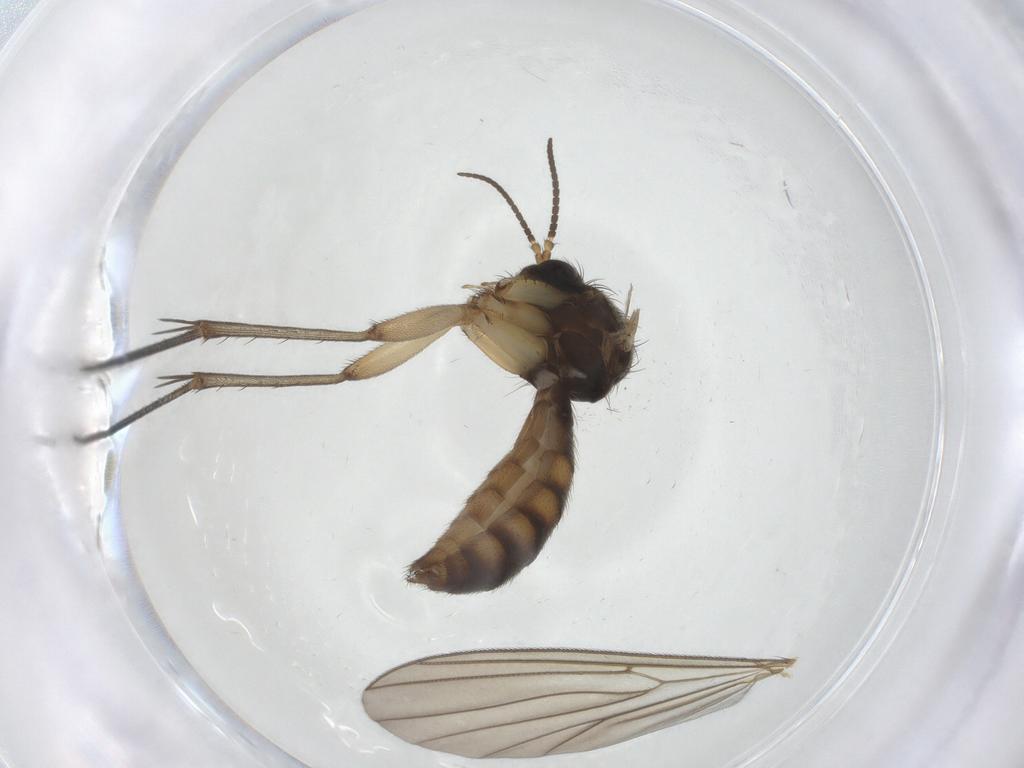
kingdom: Animalia
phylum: Arthropoda
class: Insecta
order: Diptera
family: Mycetophilidae
